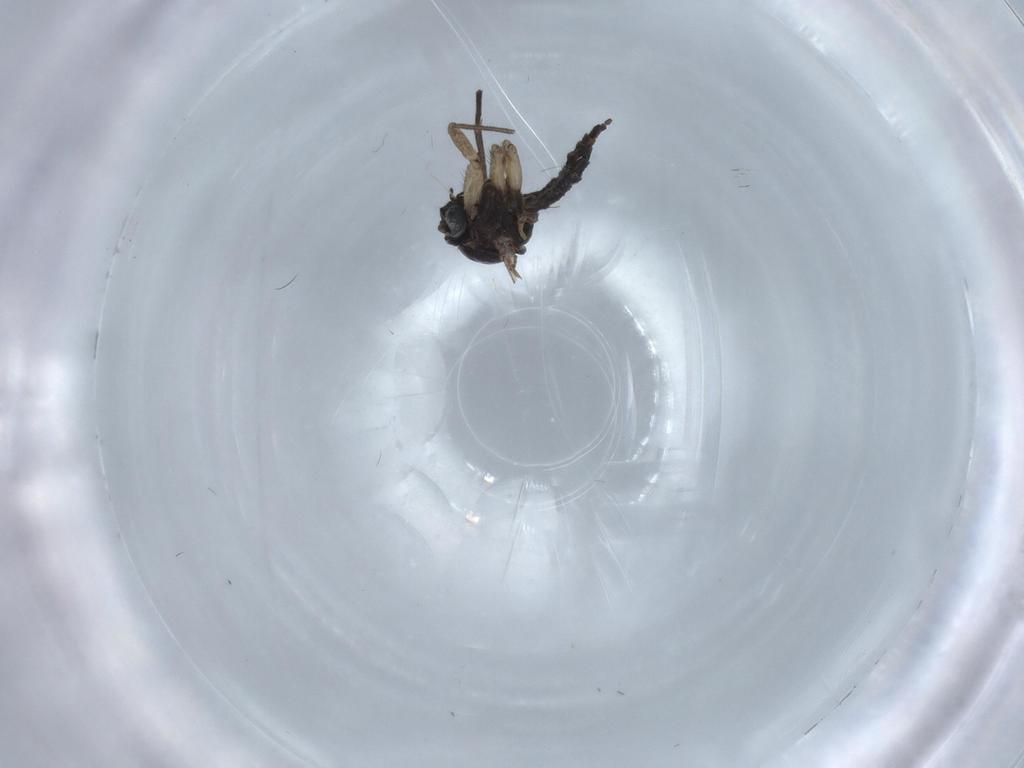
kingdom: Animalia
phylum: Arthropoda
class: Insecta
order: Diptera
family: Sciaridae
